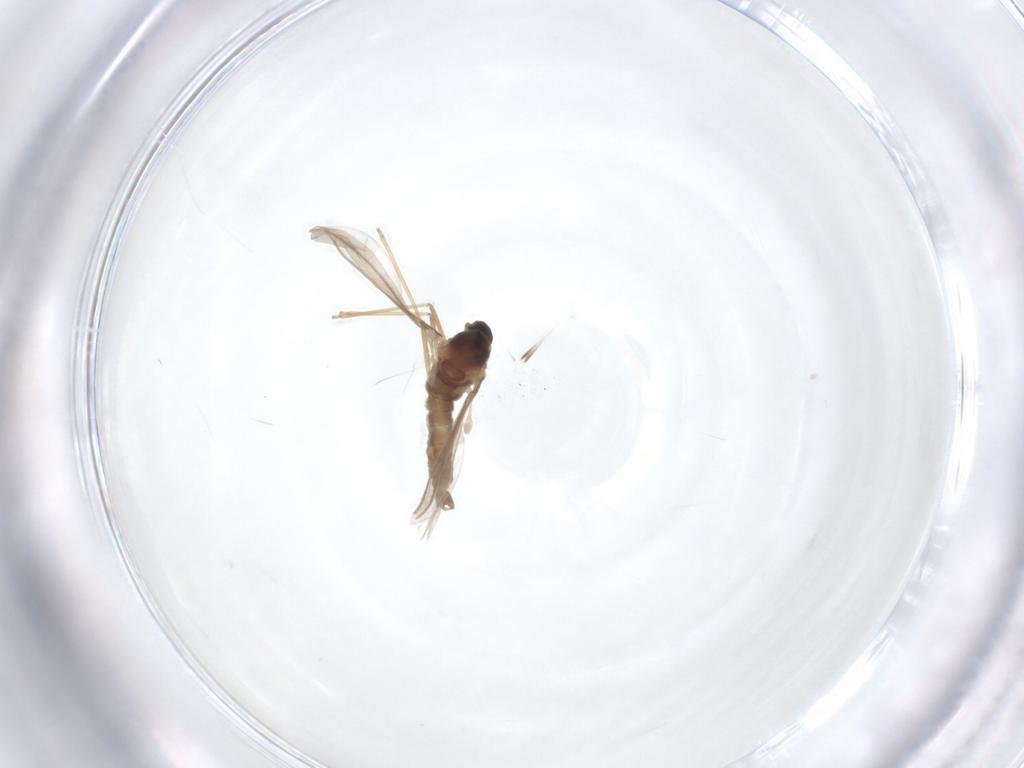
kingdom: Animalia
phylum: Arthropoda
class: Insecta
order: Diptera
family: Cecidomyiidae
